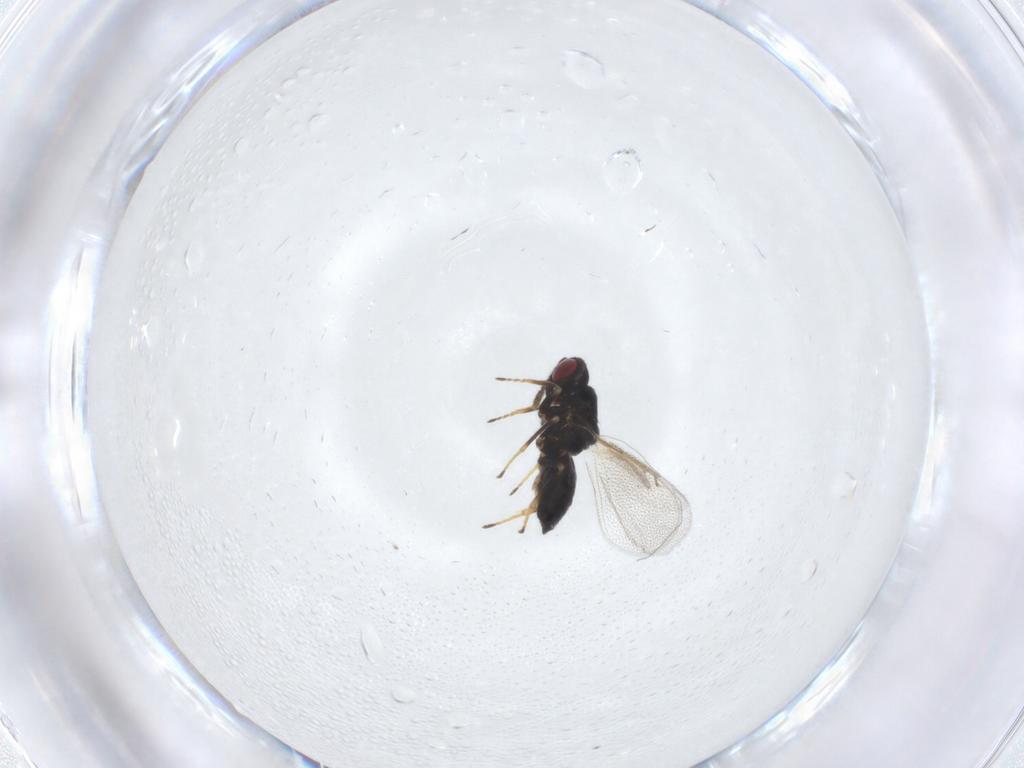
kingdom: Animalia
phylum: Arthropoda
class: Insecta
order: Hymenoptera
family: Eulophidae
